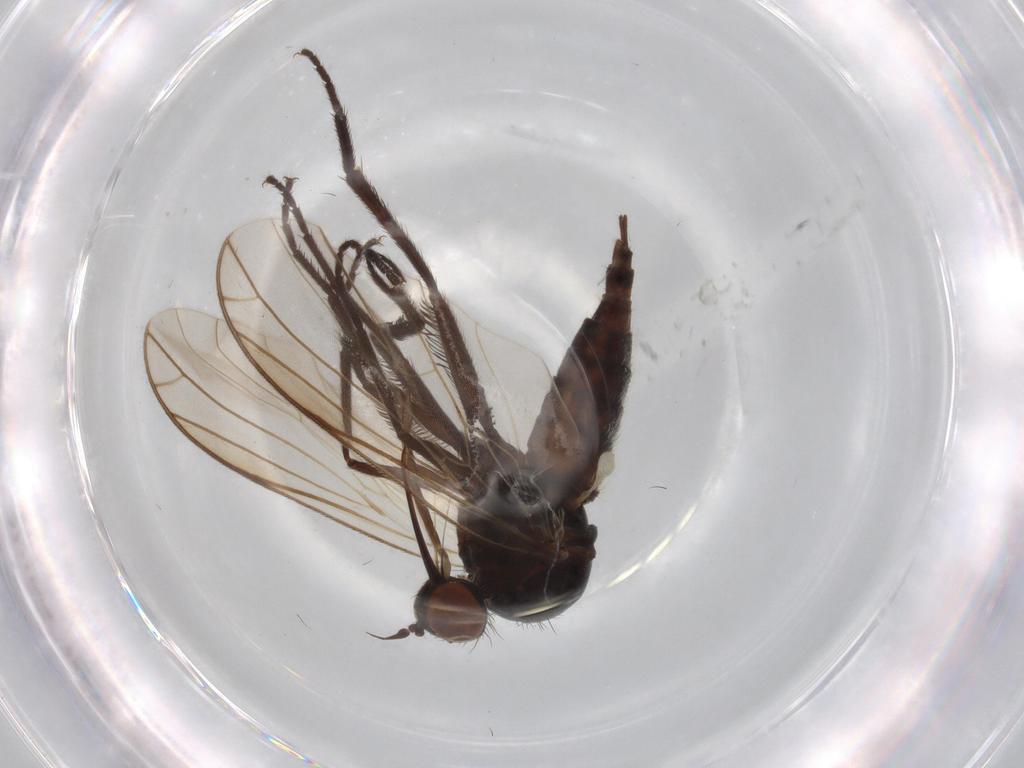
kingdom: Animalia
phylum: Arthropoda
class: Insecta
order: Diptera
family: Empididae
